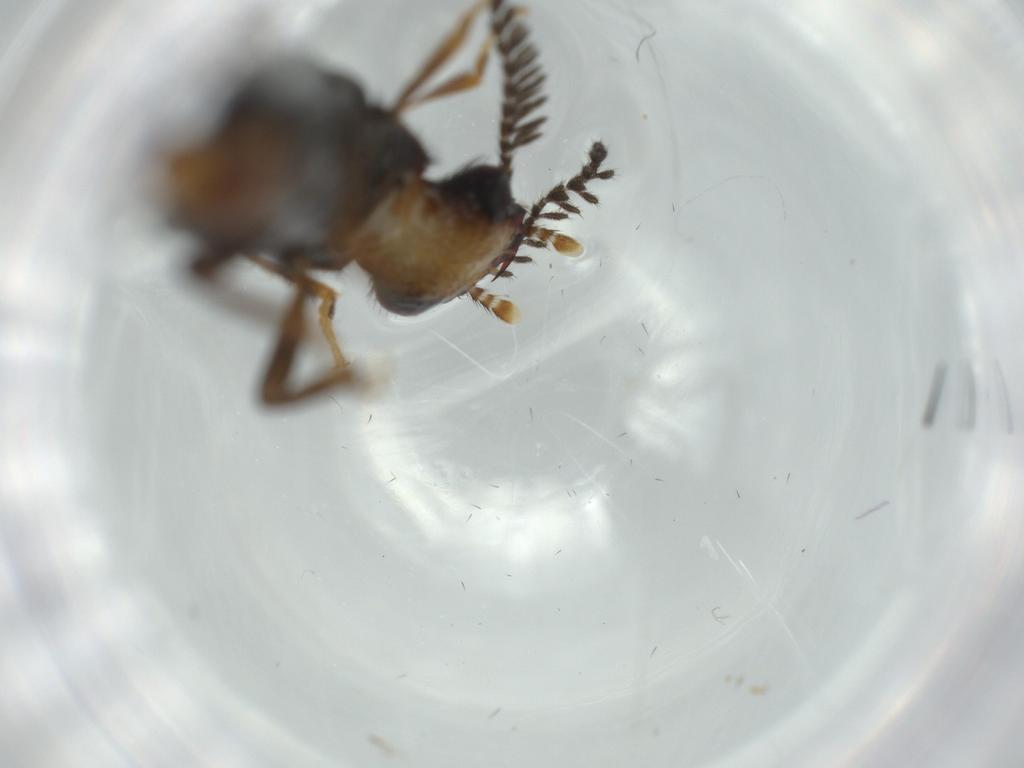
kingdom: Animalia
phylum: Arthropoda
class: Insecta
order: Coleoptera
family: Phengodidae
